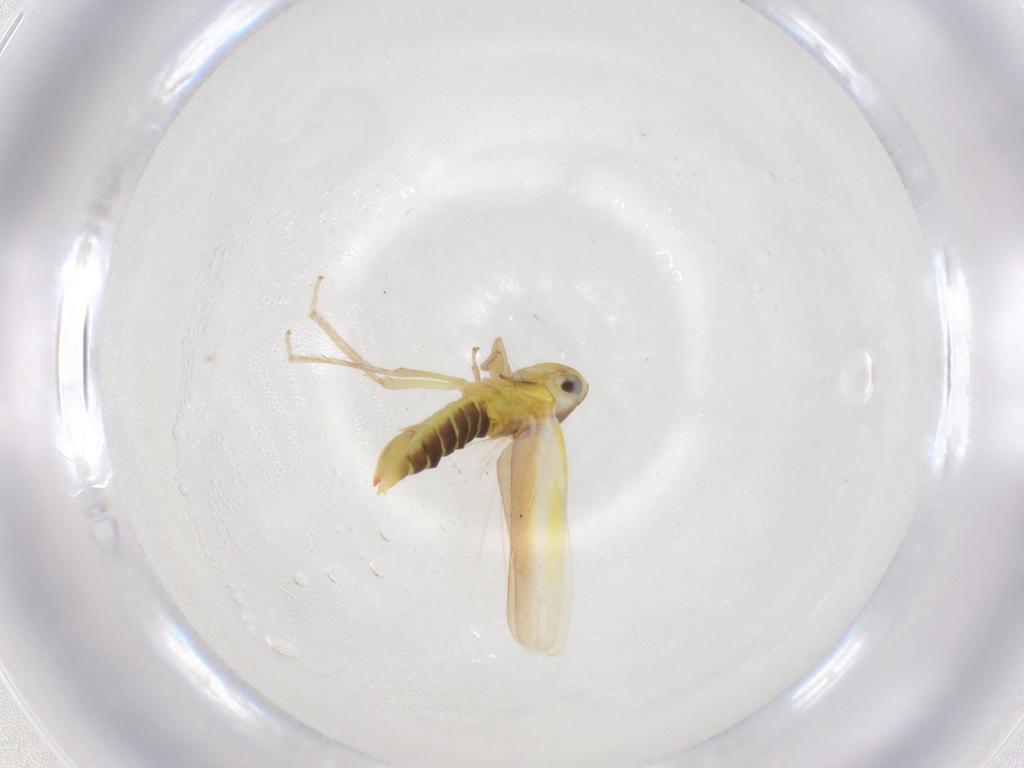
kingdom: Animalia
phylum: Arthropoda
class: Insecta
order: Hemiptera
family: Cicadellidae
